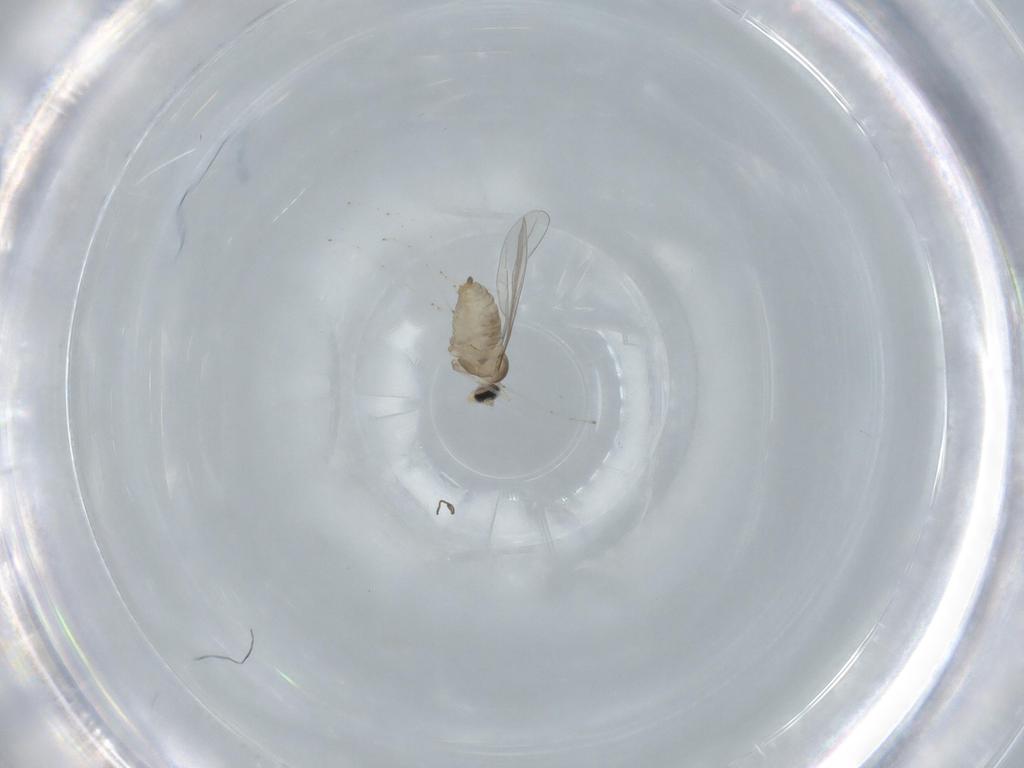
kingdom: Animalia
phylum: Arthropoda
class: Insecta
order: Diptera
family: Cecidomyiidae
